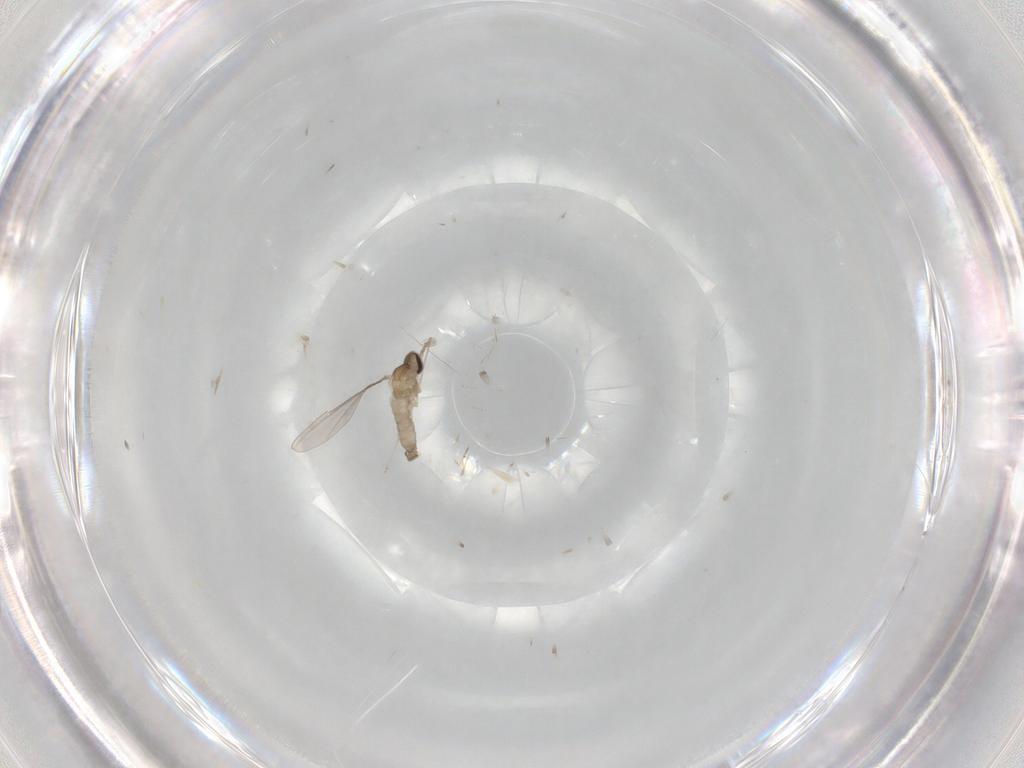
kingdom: Animalia
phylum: Arthropoda
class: Insecta
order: Diptera
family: Cecidomyiidae
